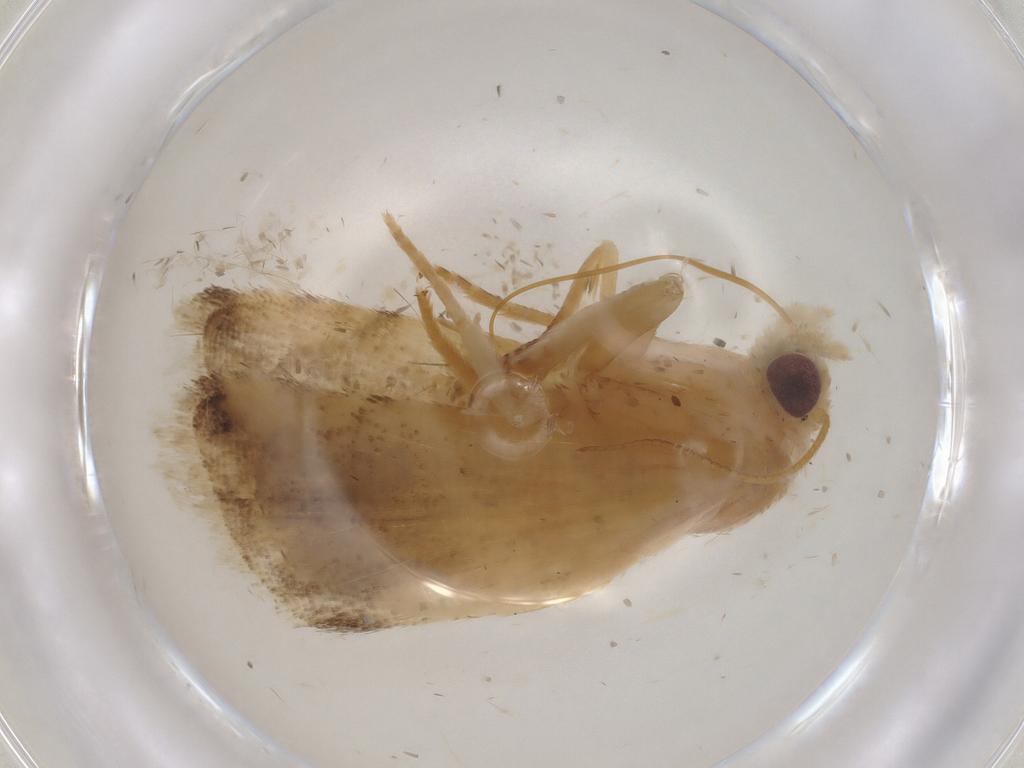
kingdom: Animalia
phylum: Arthropoda
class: Insecta
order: Lepidoptera
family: Erebidae
